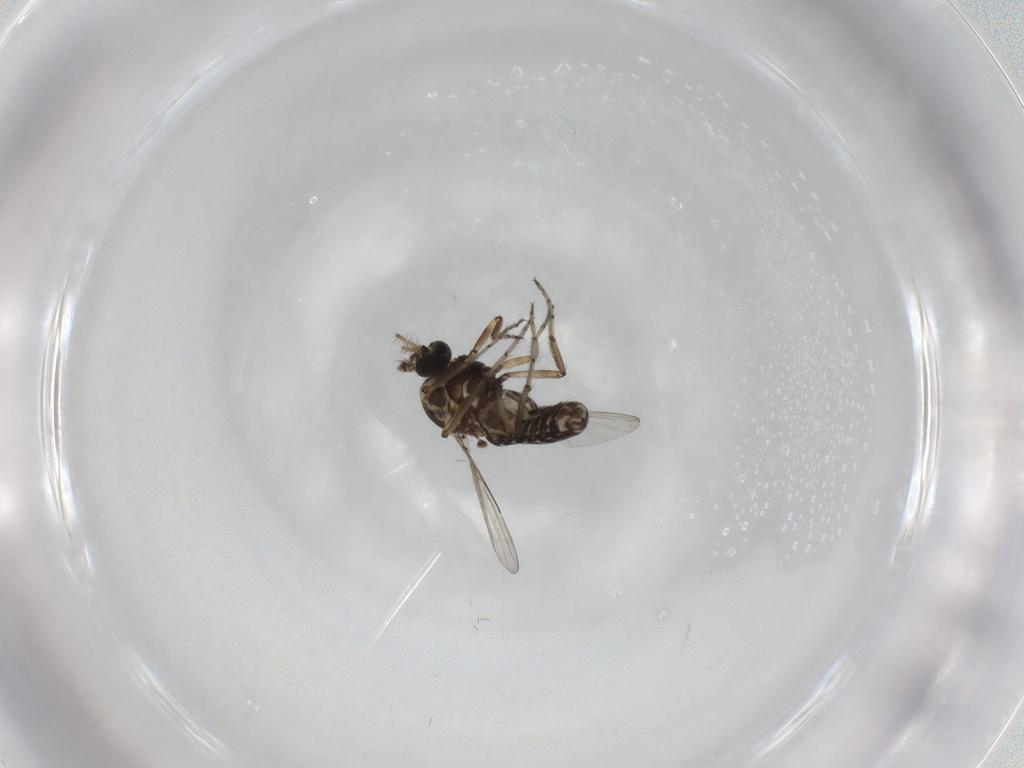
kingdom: Animalia
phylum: Arthropoda
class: Insecta
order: Diptera
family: Ceratopogonidae
